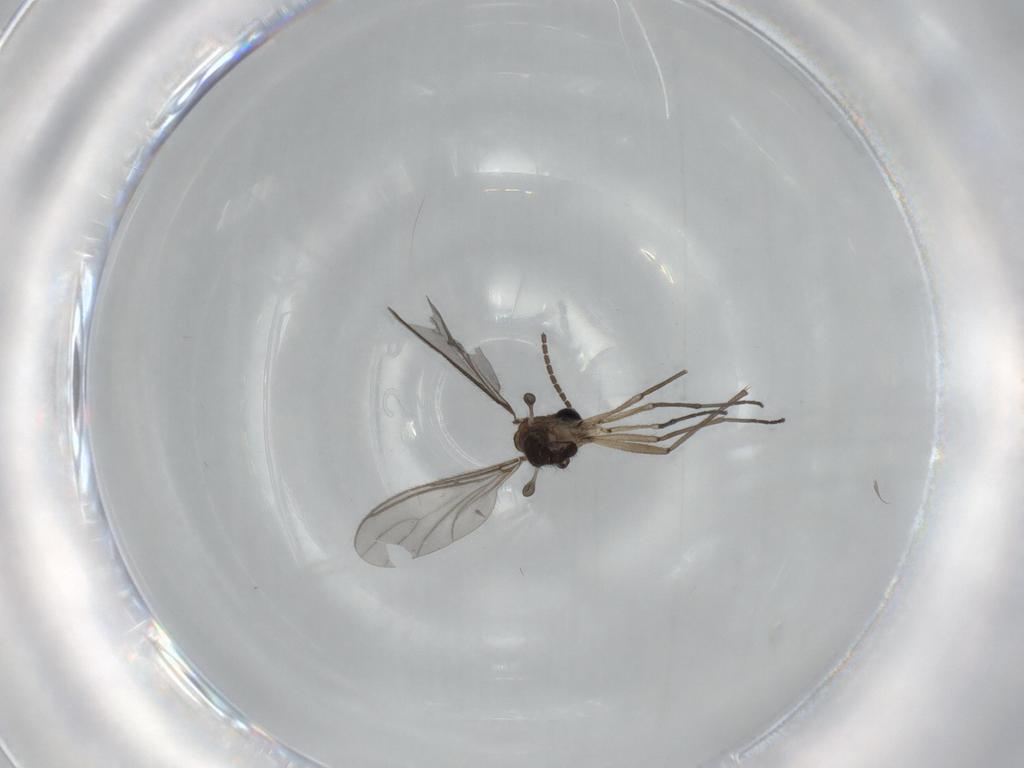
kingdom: Animalia
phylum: Arthropoda
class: Insecta
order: Diptera
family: Sciaridae
